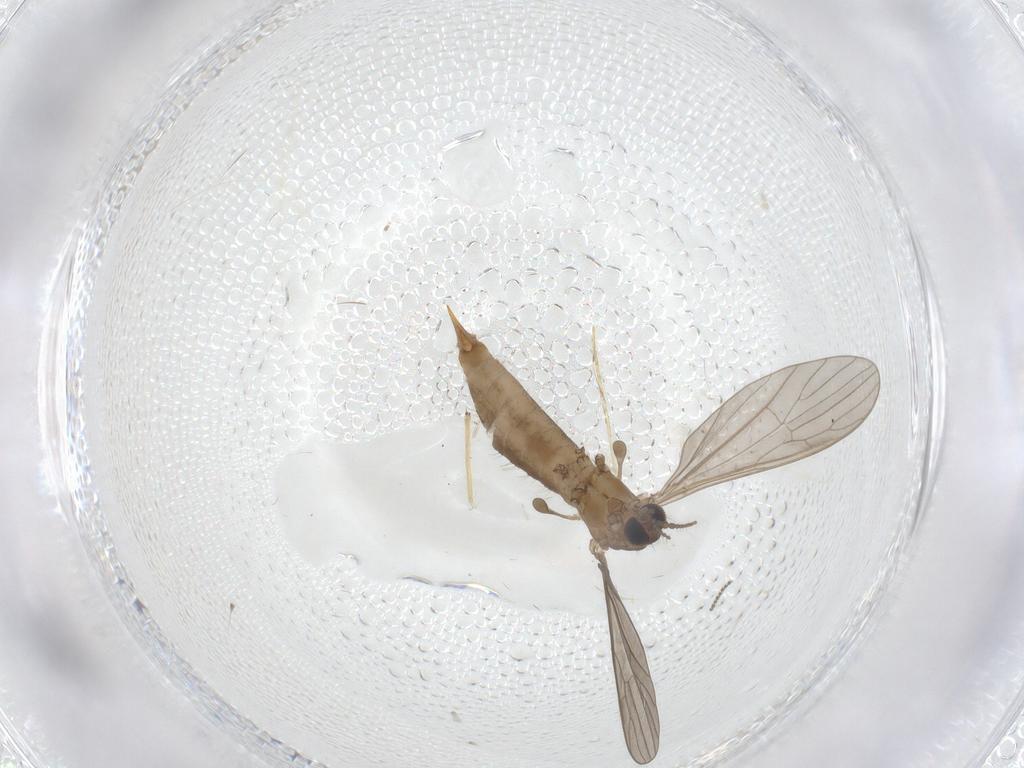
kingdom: Animalia
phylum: Arthropoda
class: Insecta
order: Diptera
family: Limoniidae
